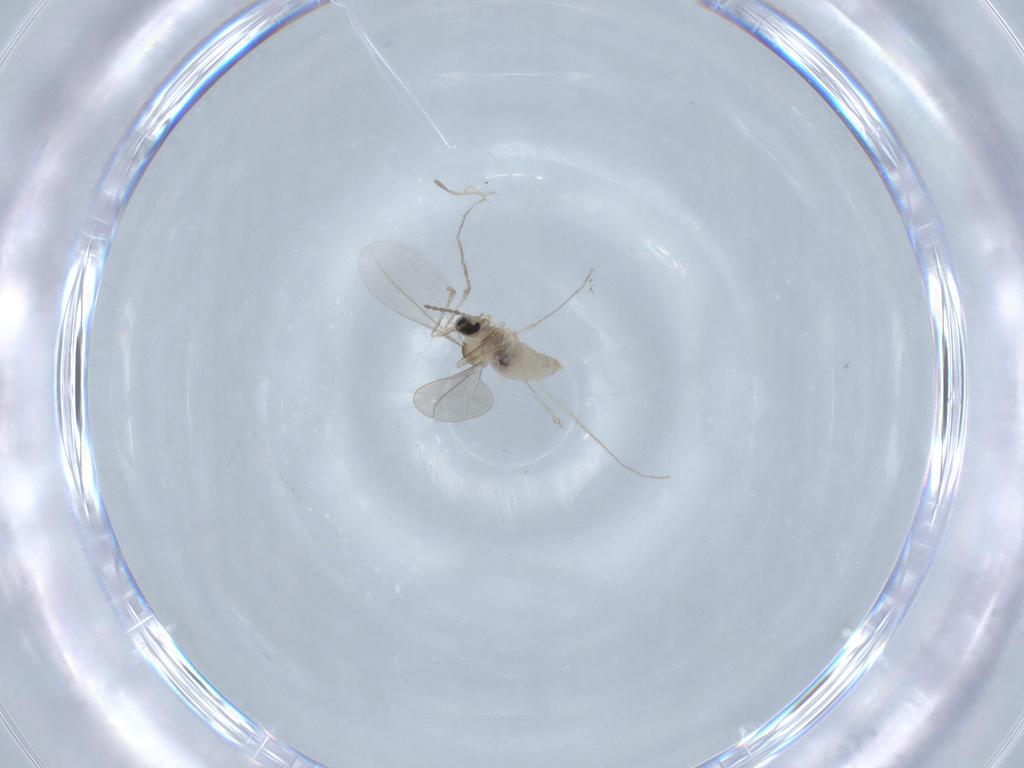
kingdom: Animalia
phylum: Arthropoda
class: Insecta
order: Diptera
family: Cecidomyiidae
